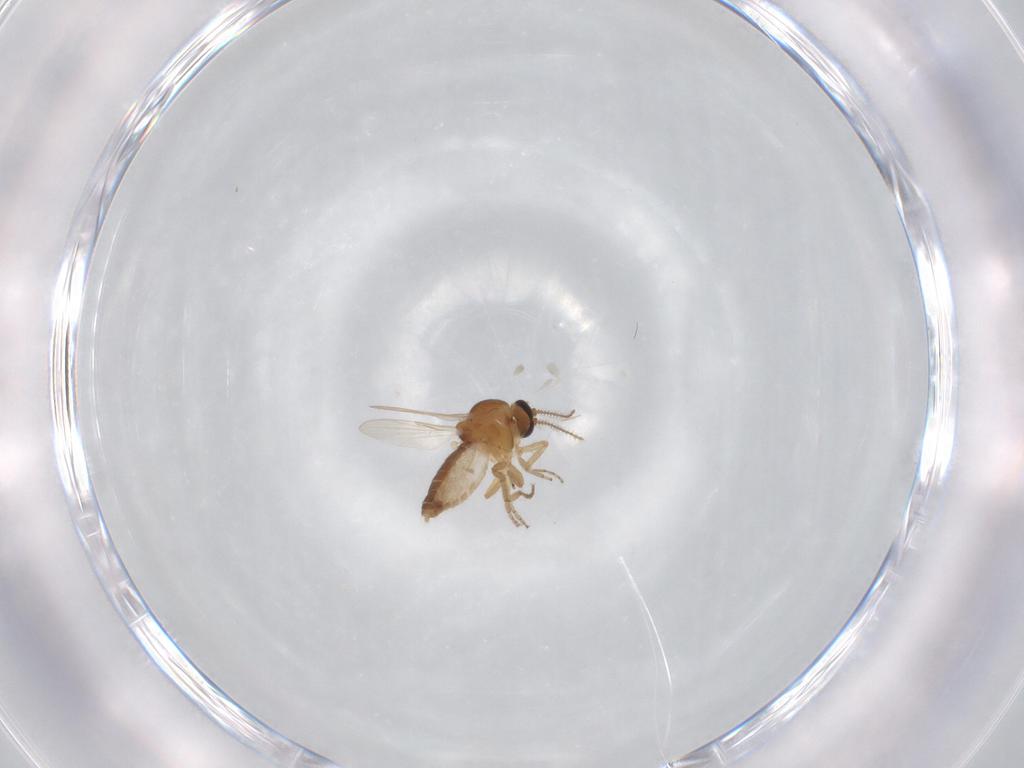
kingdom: Animalia
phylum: Arthropoda
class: Insecta
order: Diptera
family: Ceratopogonidae
